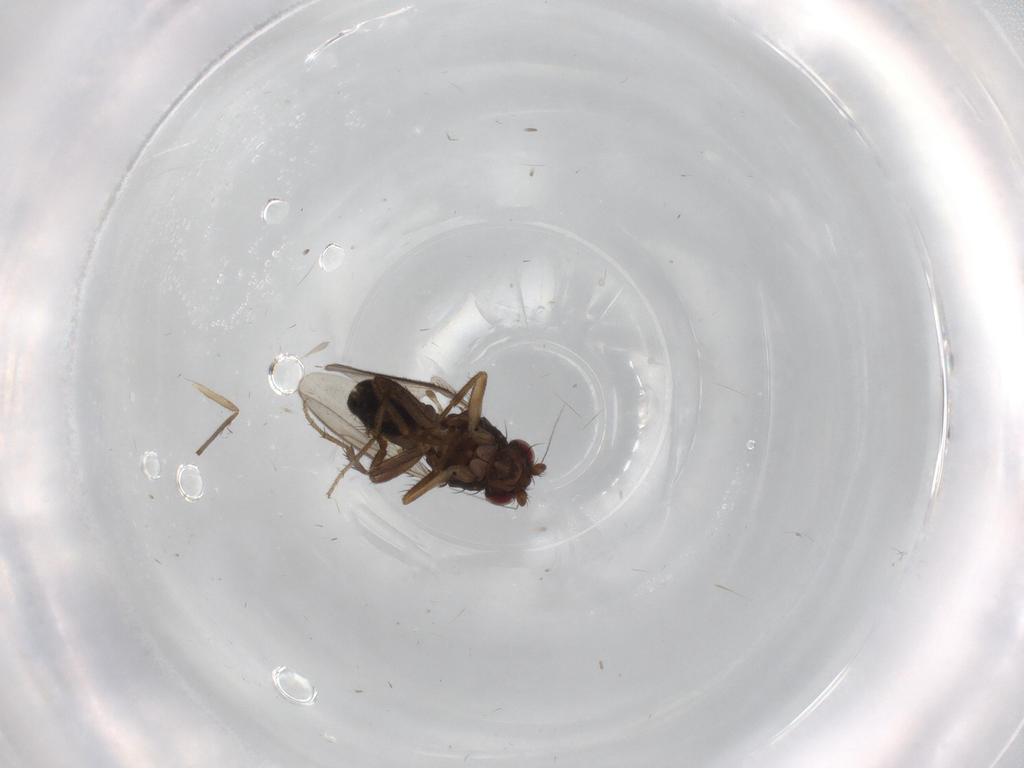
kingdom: Animalia
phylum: Arthropoda
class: Insecta
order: Diptera
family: Sphaeroceridae
